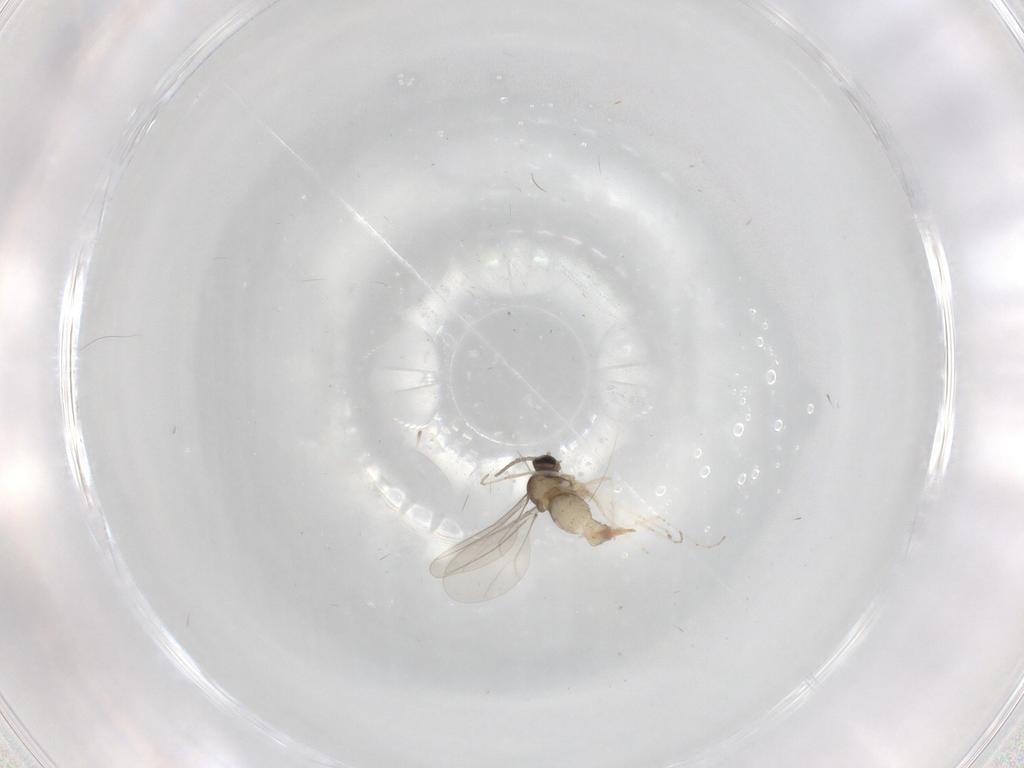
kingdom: Animalia
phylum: Arthropoda
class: Insecta
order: Diptera
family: Cecidomyiidae
